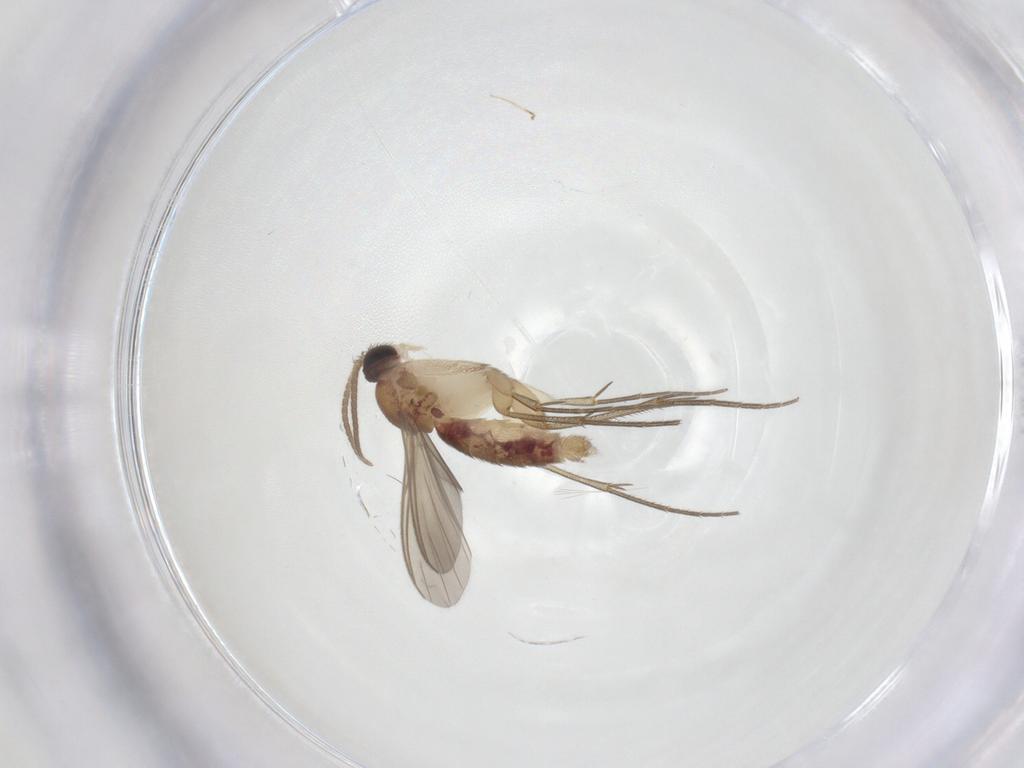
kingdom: Animalia
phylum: Arthropoda
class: Insecta
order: Diptera
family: Mycetophilidae
